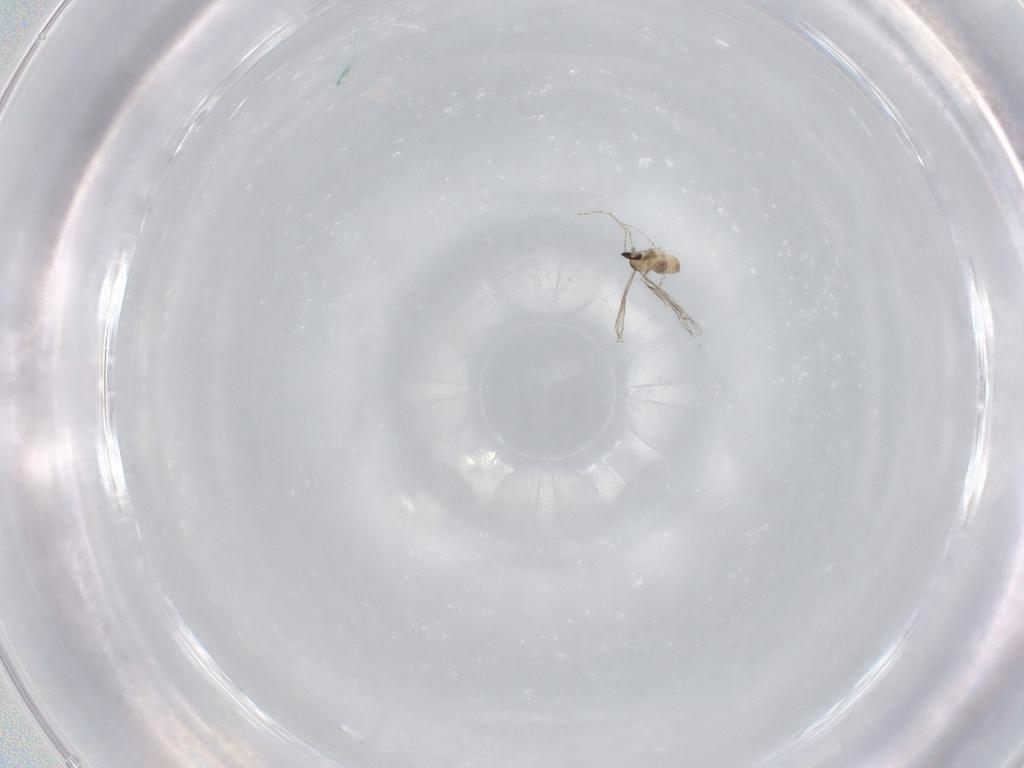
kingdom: Animalia
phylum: Arthropoda
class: Insecta
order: Diptera
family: Cecidomyiidae
